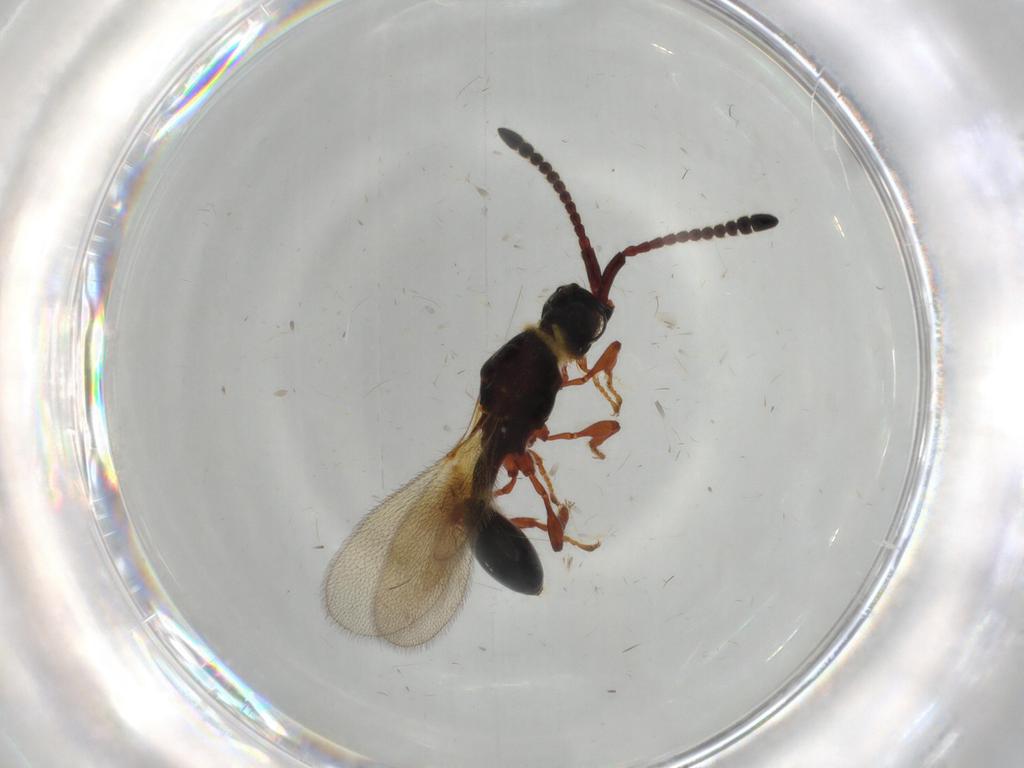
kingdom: Animalia
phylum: Arthropoda
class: Insecta
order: Hymenoptera
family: Diapriidae
